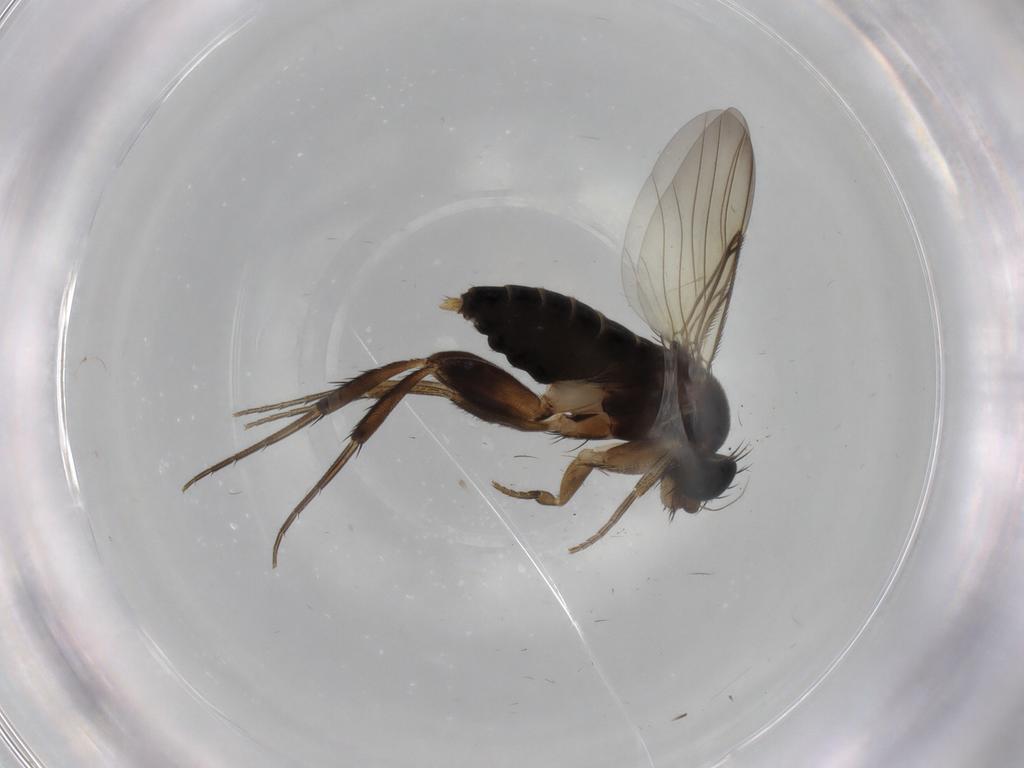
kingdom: Animalia
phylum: Arthropoda
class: Insecta
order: Diptera
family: Phoridae
